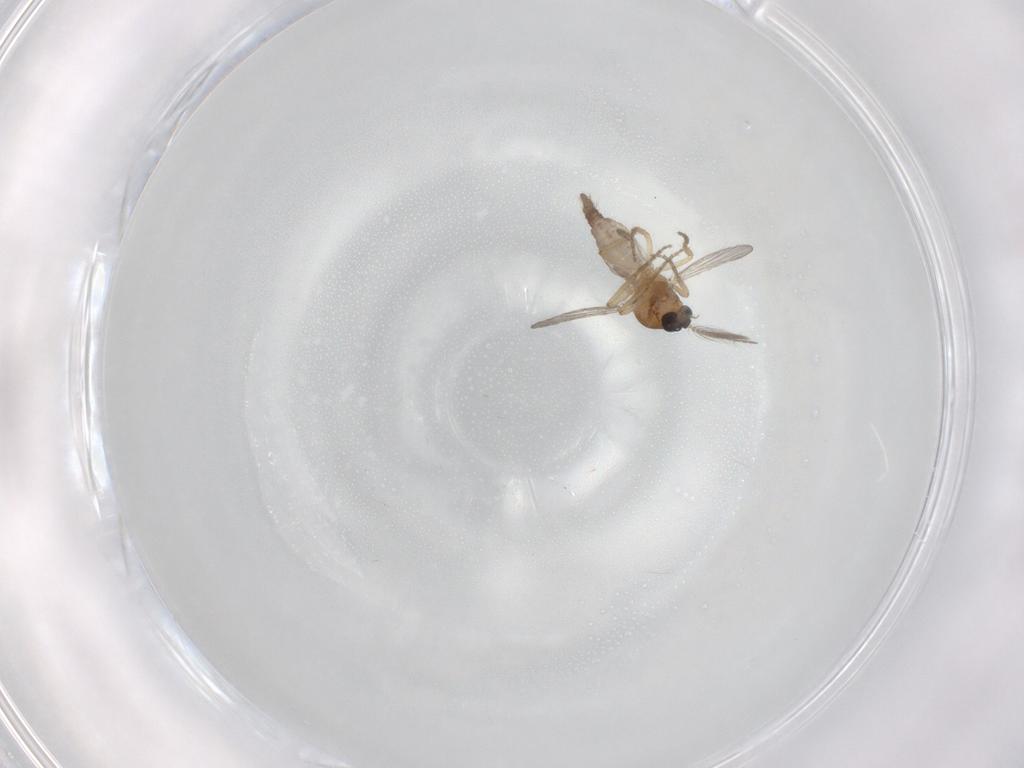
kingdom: Animalia
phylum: Arthropoda
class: Insecta
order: Diptera
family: Ceratopogonidae
